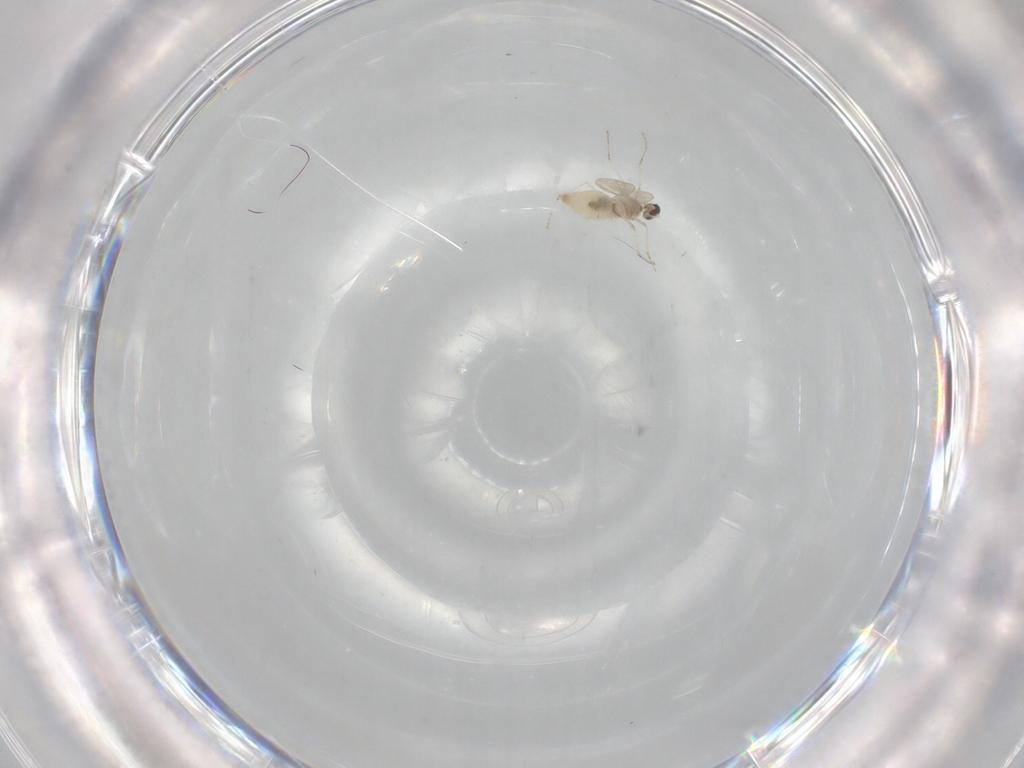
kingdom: Animalia
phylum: Arthropoda
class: Insecta
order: Diptera
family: Cecidomyiidae
